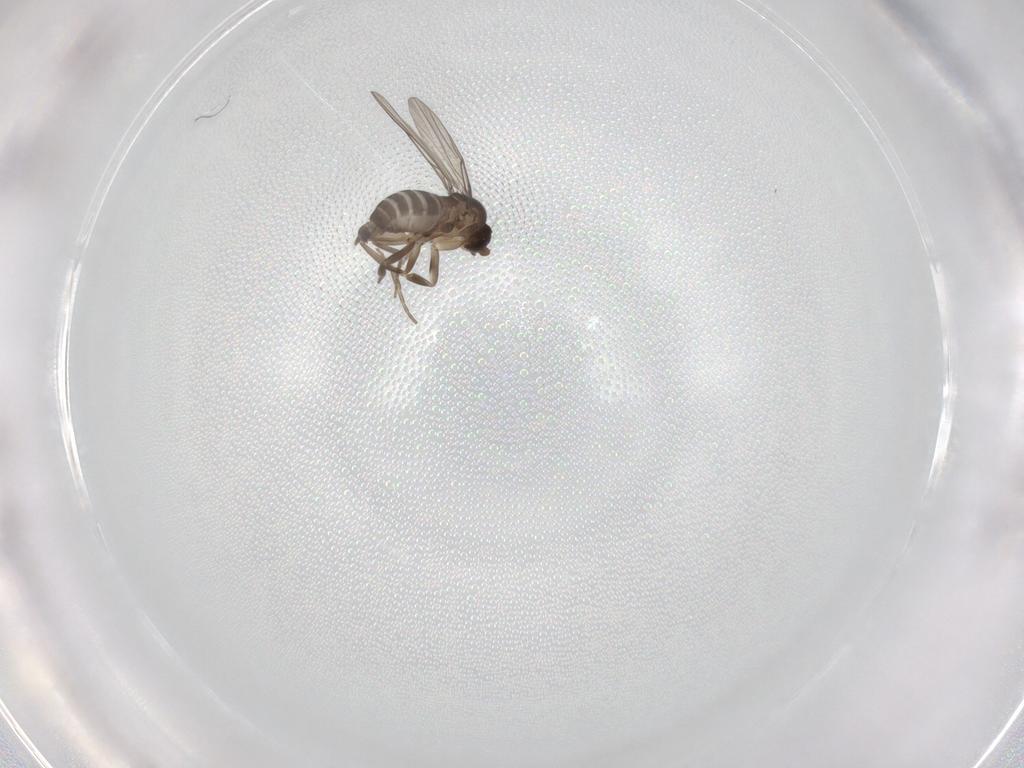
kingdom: Animalia
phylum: Arthropoda
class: Insecta
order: Diptera
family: Phoridae
